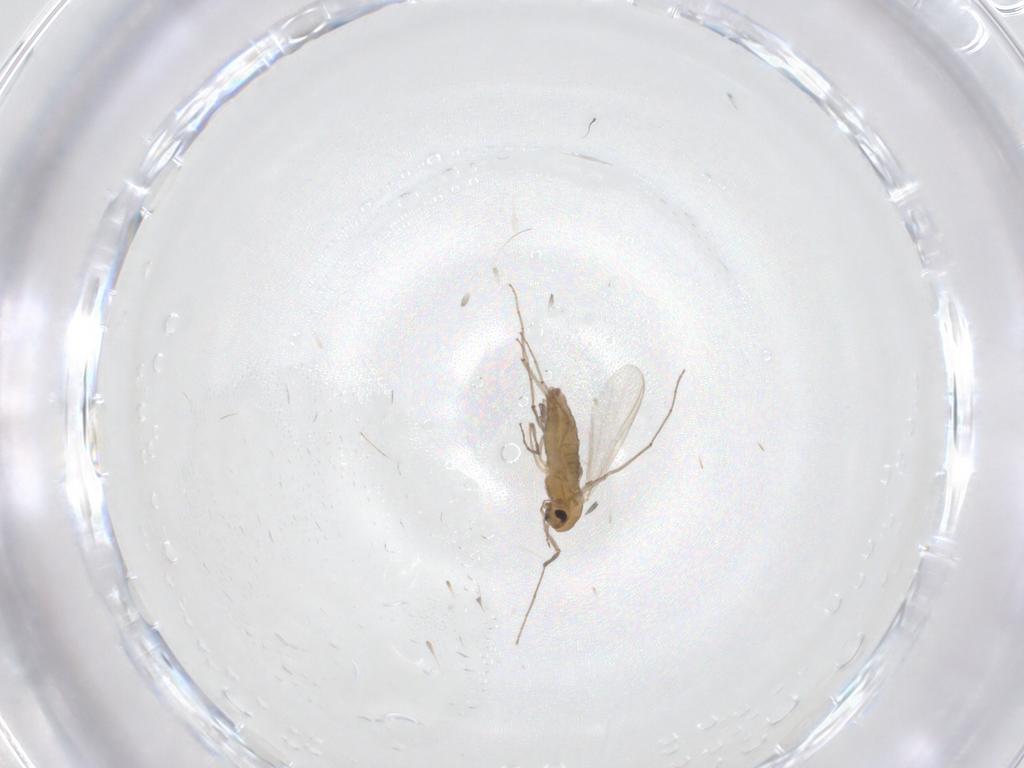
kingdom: Animalia
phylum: Arthropoda
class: Insecta
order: Diptera
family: Chironomidae
